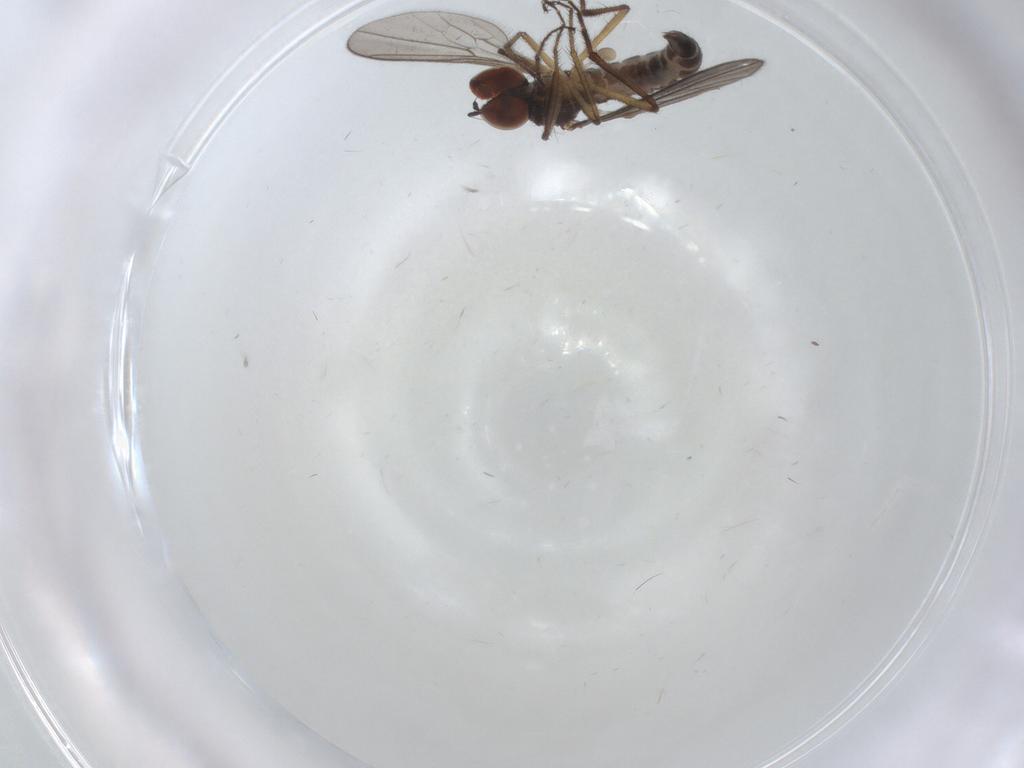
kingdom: Animalia
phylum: Arthropoda
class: Insecta
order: Diptera
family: Hybotidae
